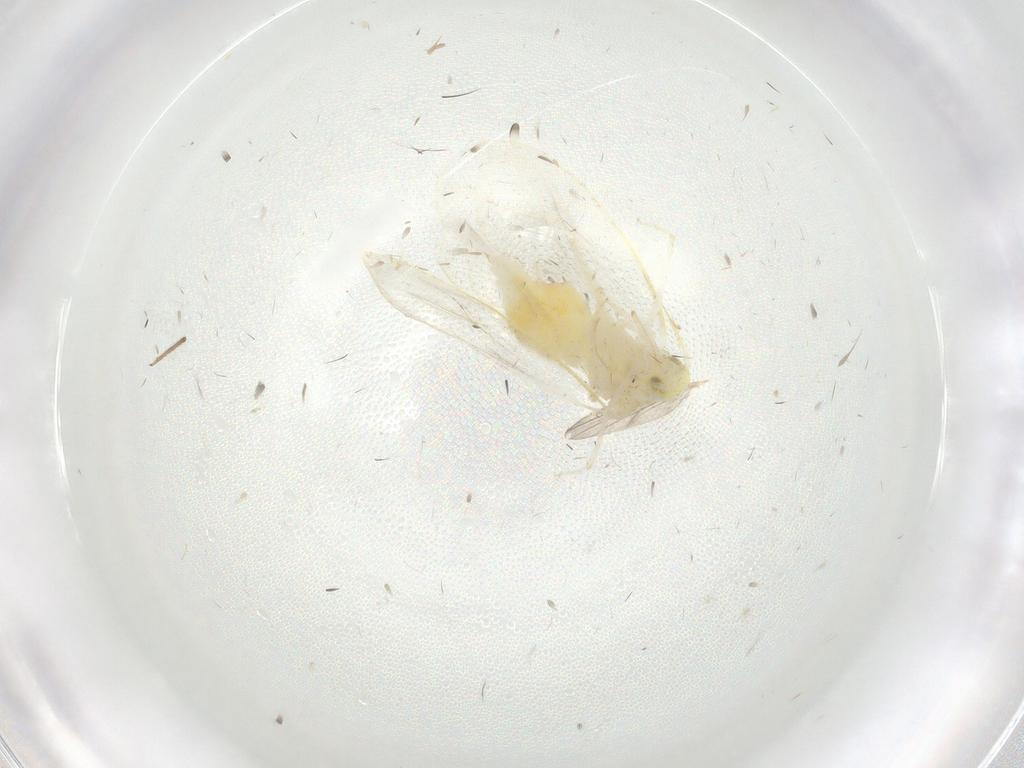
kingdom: Animalia
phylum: Arthropoda
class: Insecta
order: Hemiptera
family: Aleyrodidae
